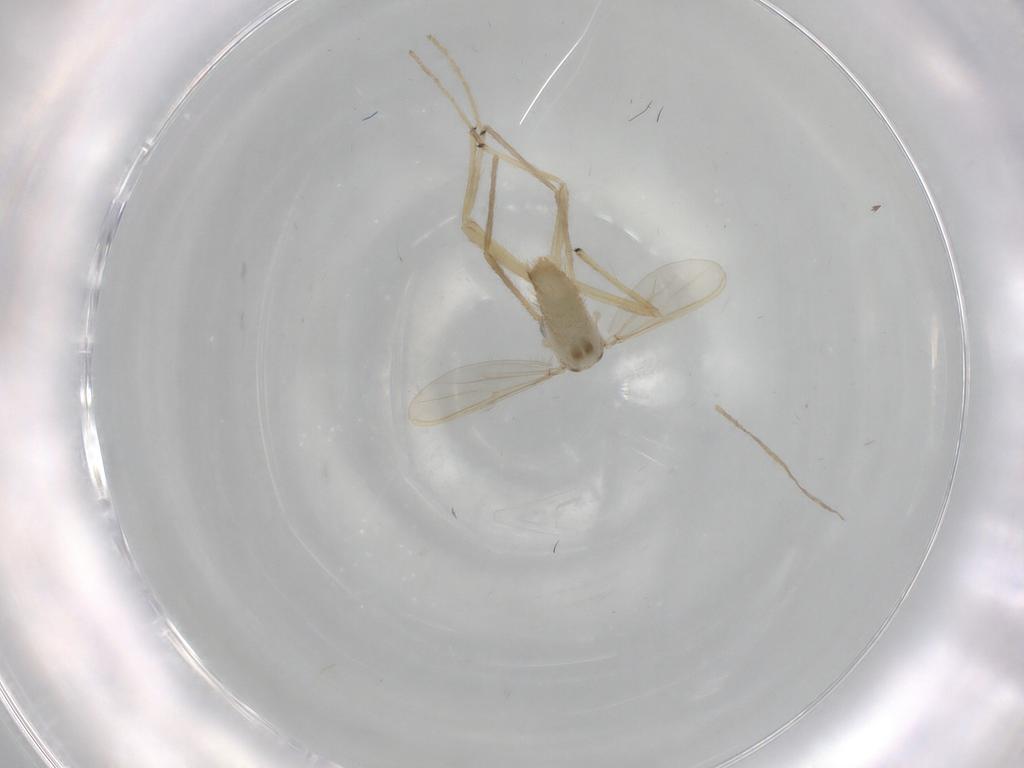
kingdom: Animalia
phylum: Arthropoda
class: Insecta
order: Diptera
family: Chironomidae
